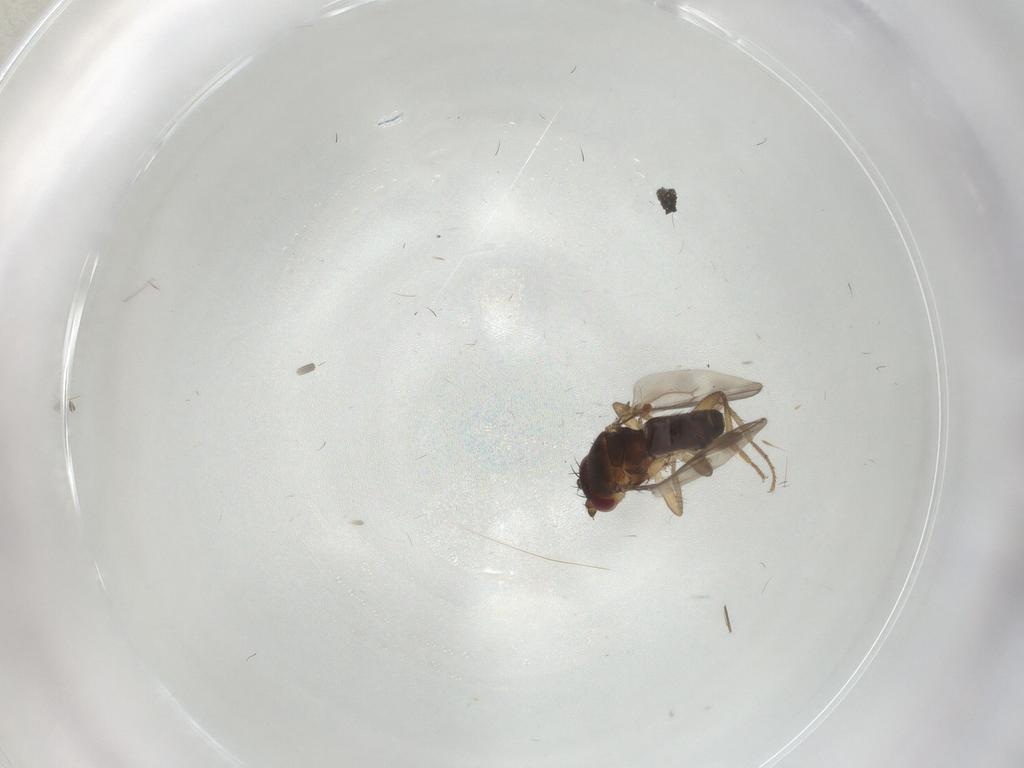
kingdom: Animalia
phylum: Arthropoda
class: Insecta
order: Diptera
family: Sphaeroceridae
